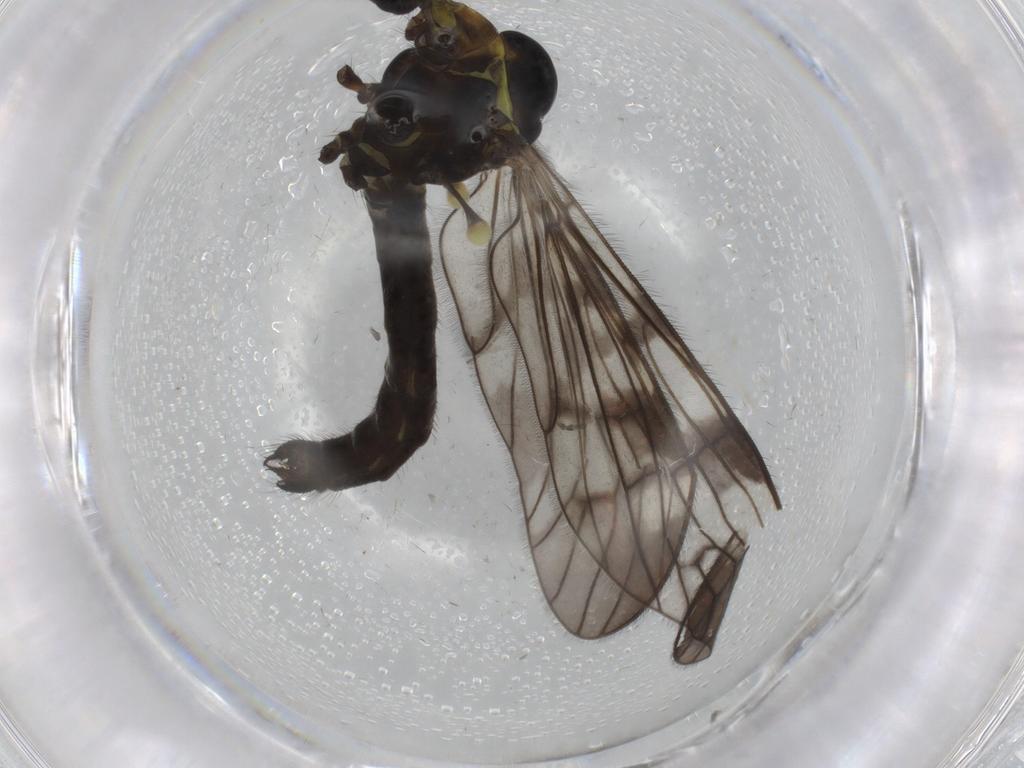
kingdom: Animalia
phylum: Arthropoda
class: Insecta
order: Diptera
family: Limoniidae
